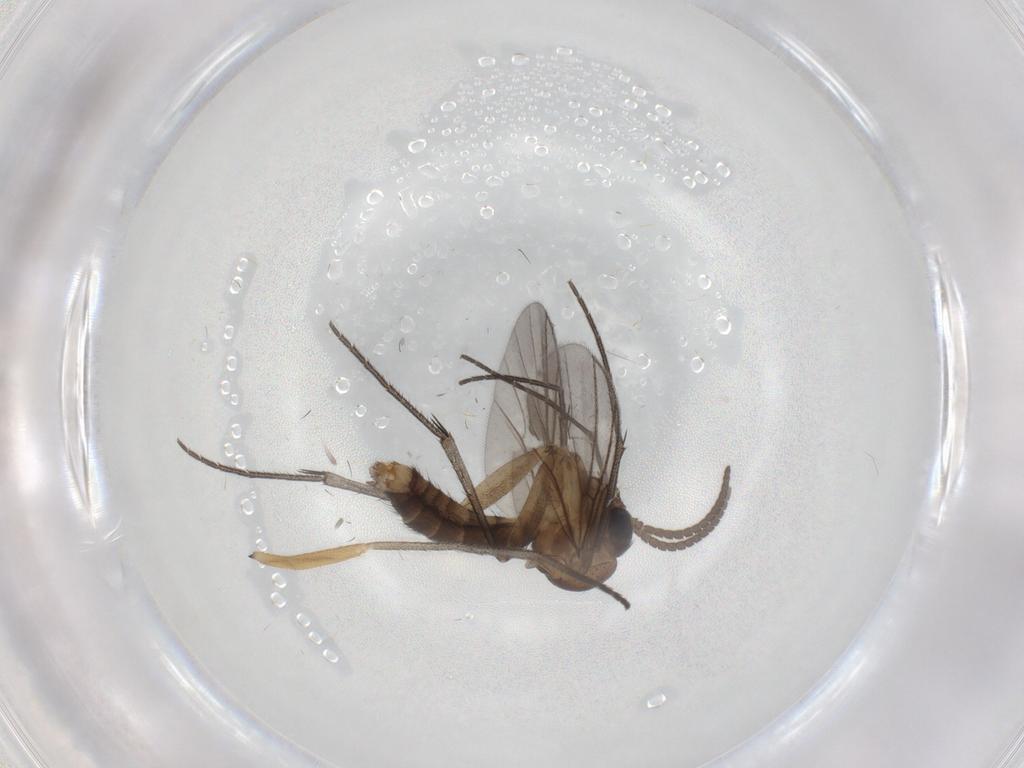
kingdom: Animalia
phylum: Arthropoda
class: Insecta
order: Diptera
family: Mycetophilidae
